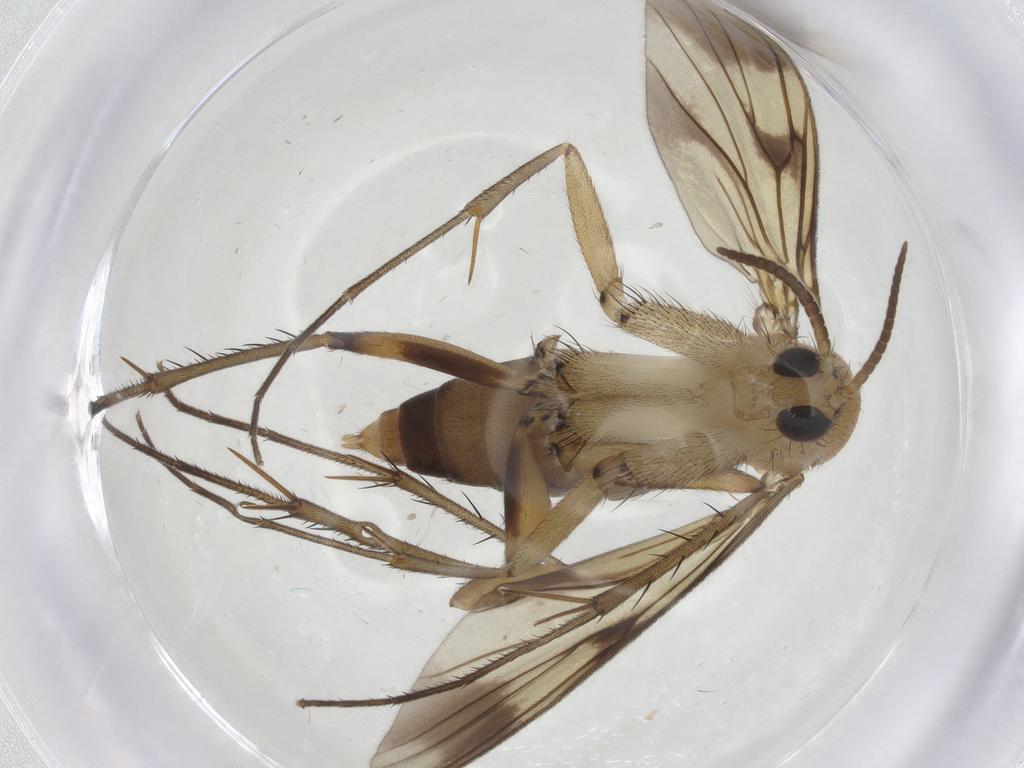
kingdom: Animalia
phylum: Arthropoda
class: Insecta
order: Diptera
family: Mycetophilidae
